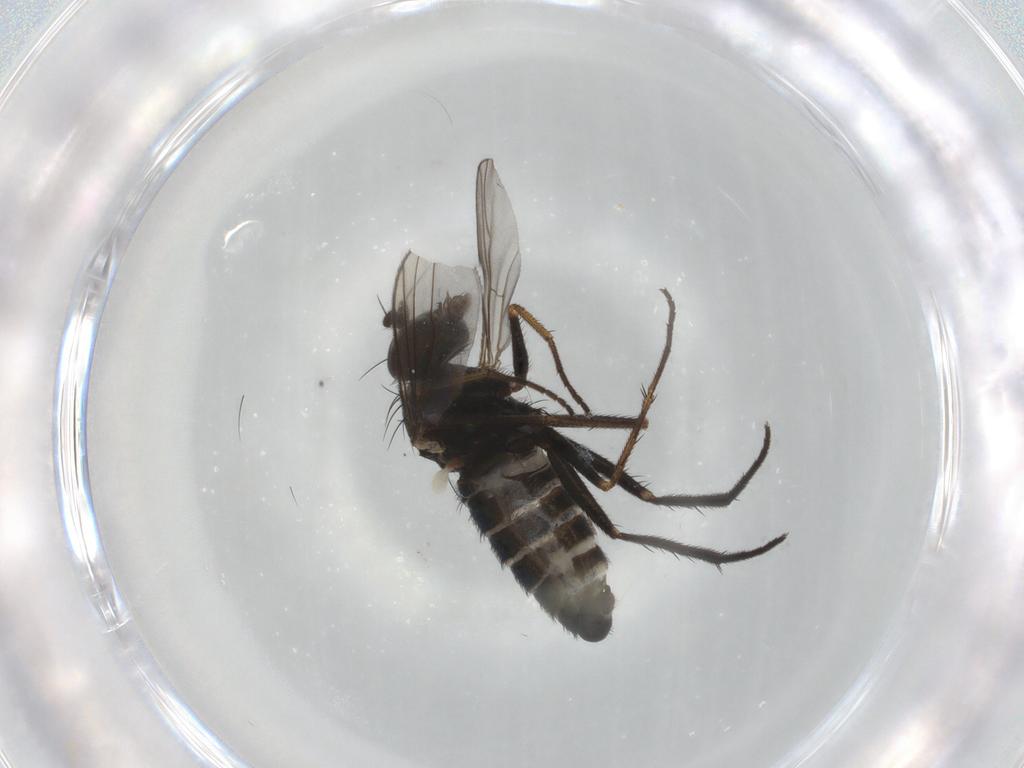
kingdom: Animalia
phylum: Arthropoda
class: Insecta
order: Diptera
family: Dolichopodidae
